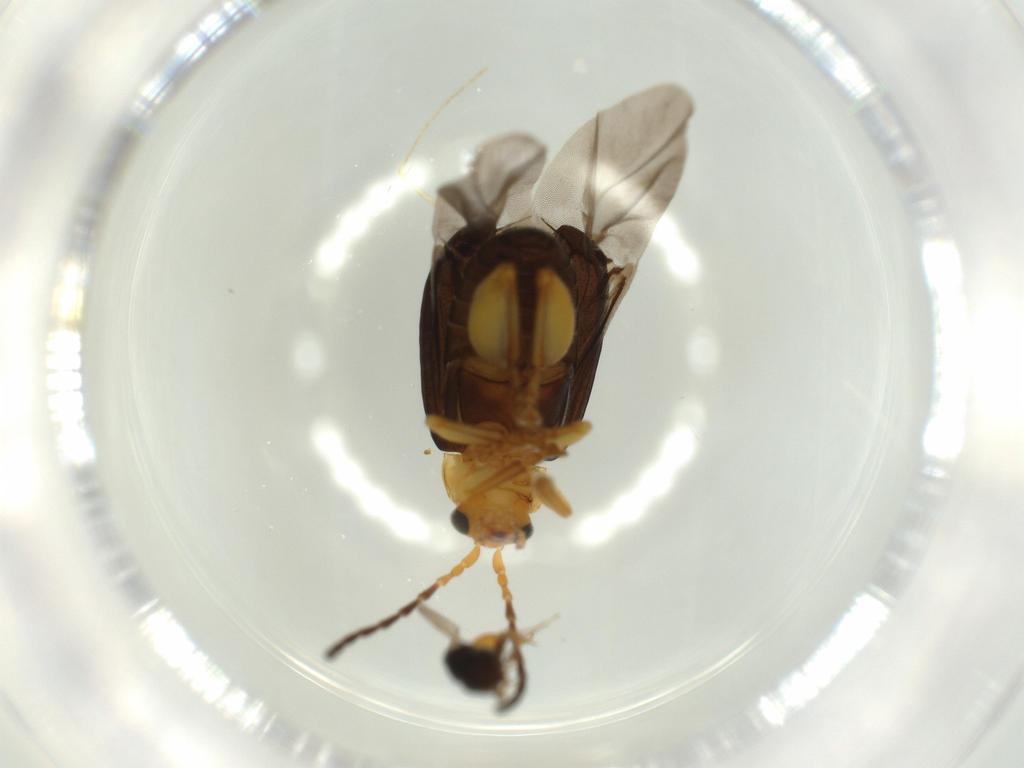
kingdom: Animalia
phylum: Arthropoda
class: Insecta
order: Coleoptera
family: Chrysomelidae
